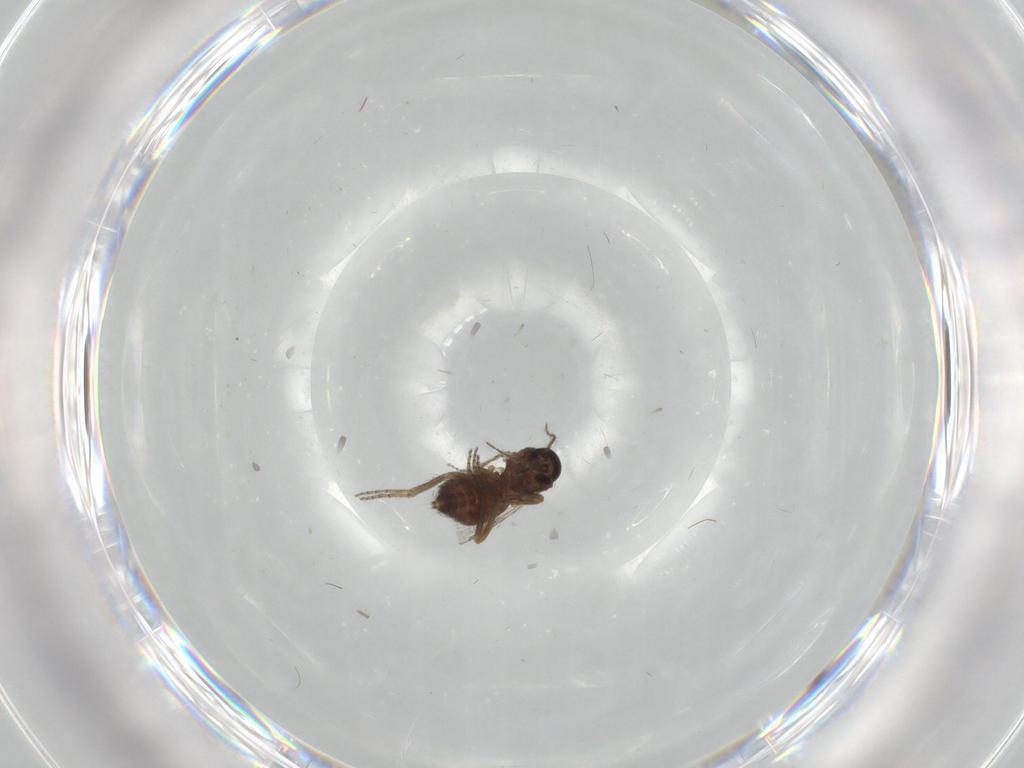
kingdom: Animalia
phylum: Arthropoda
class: Insecta
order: Diptera
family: Ceratopogonidae
